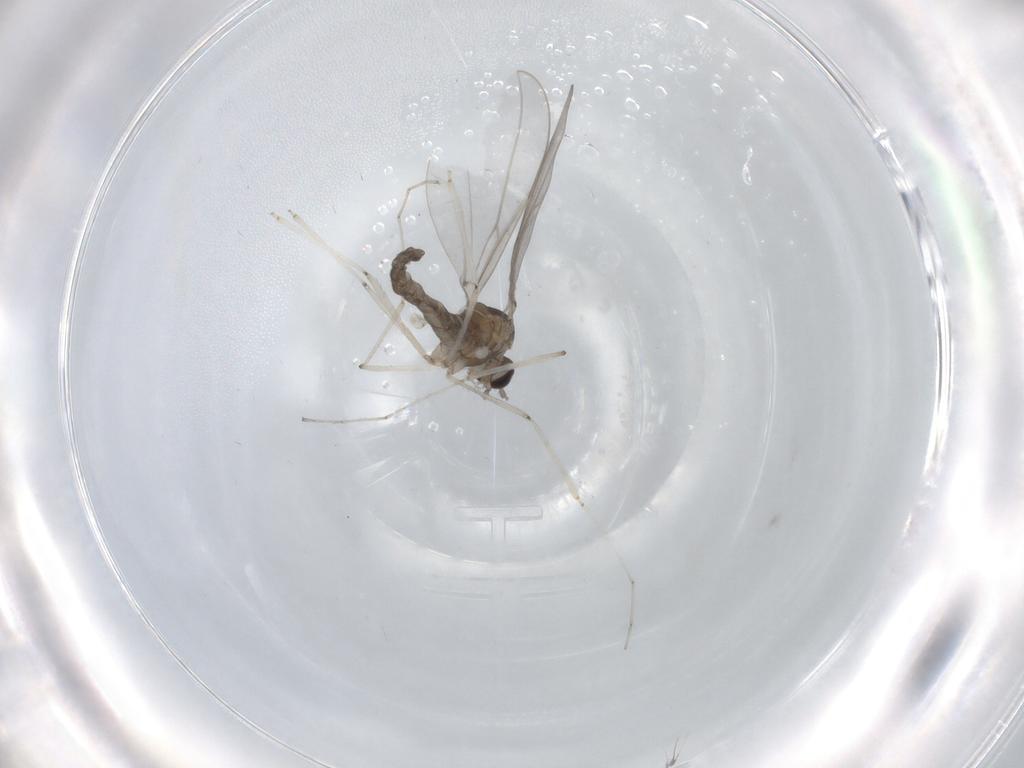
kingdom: Animalia
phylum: Arthropoda
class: Insecta
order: Diptera
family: Cecidomyiidae
